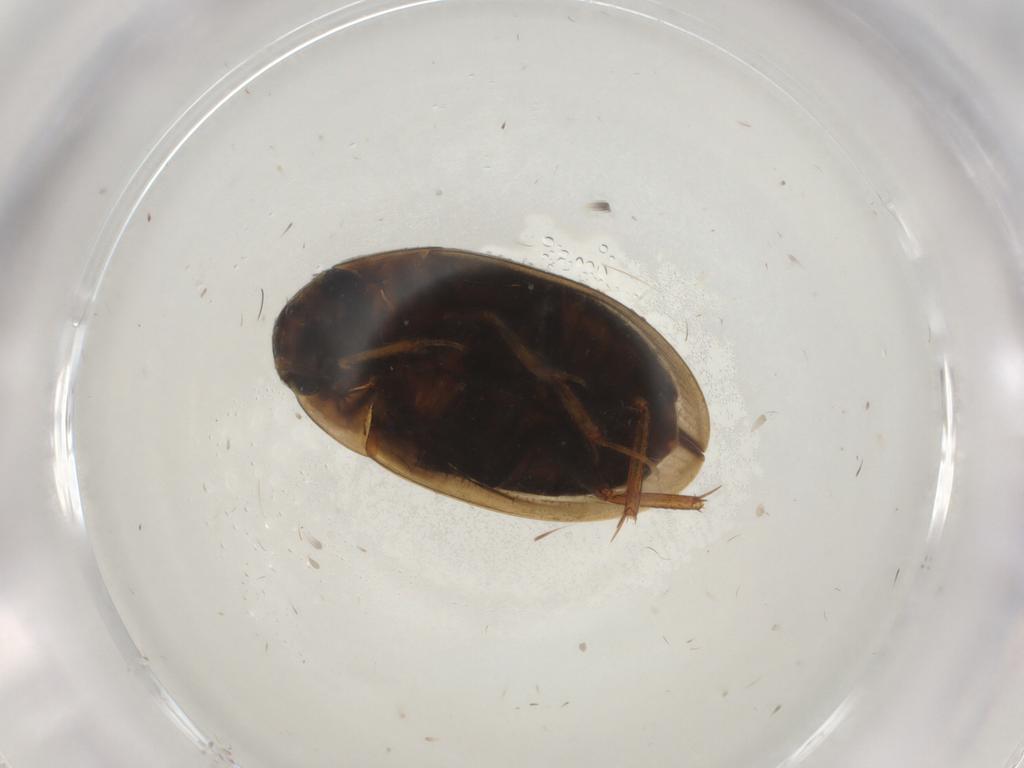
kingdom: Animalia
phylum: Arthropoda
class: Insecta
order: Coleoptera
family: Hydrophilidae
